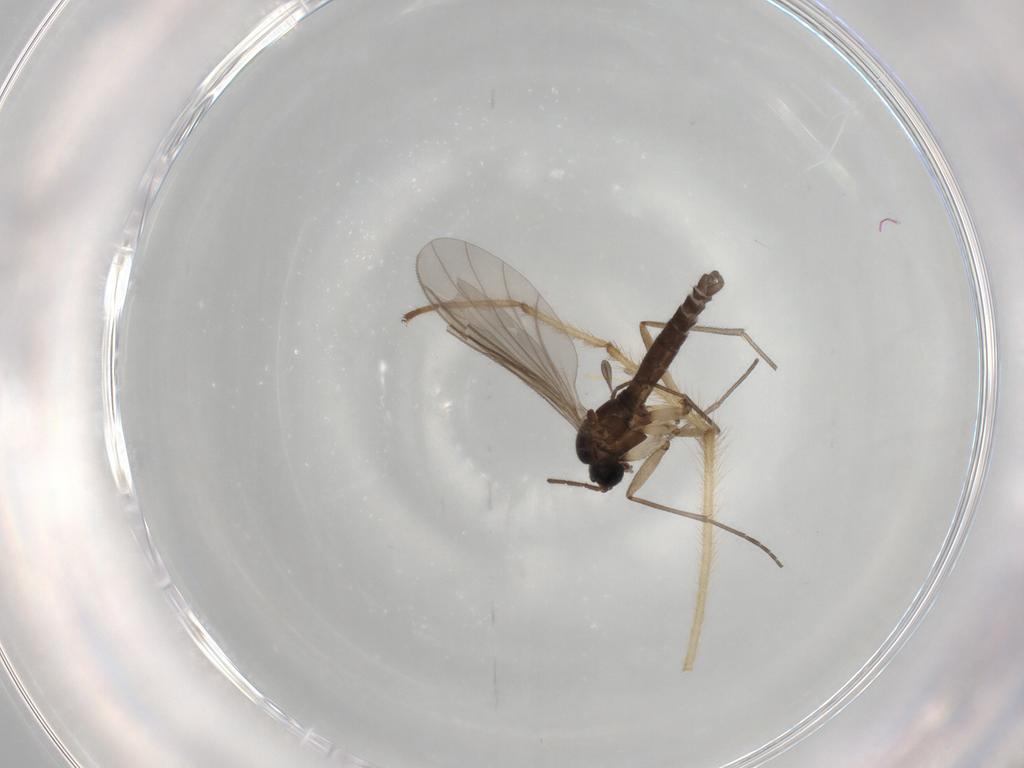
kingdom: Animalia
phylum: Arthropoda
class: Insecta
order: Diptera
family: Sciaridae
